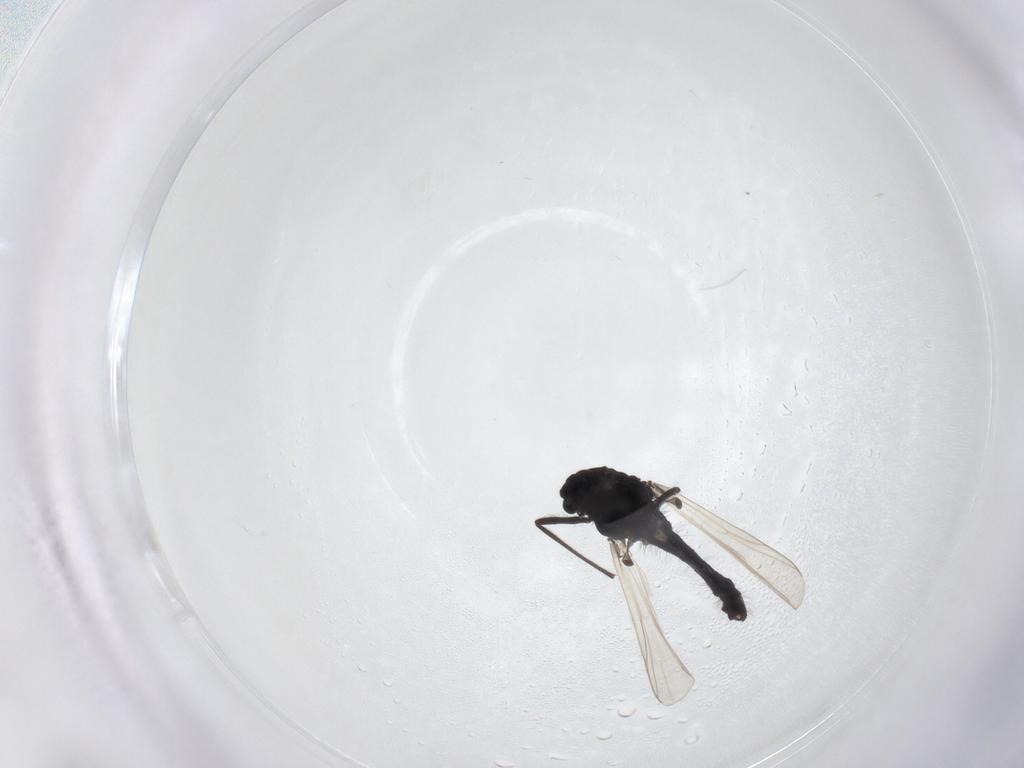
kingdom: Animalia
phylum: Arthropoda
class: Insecta
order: Diptera
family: Chironomidae
